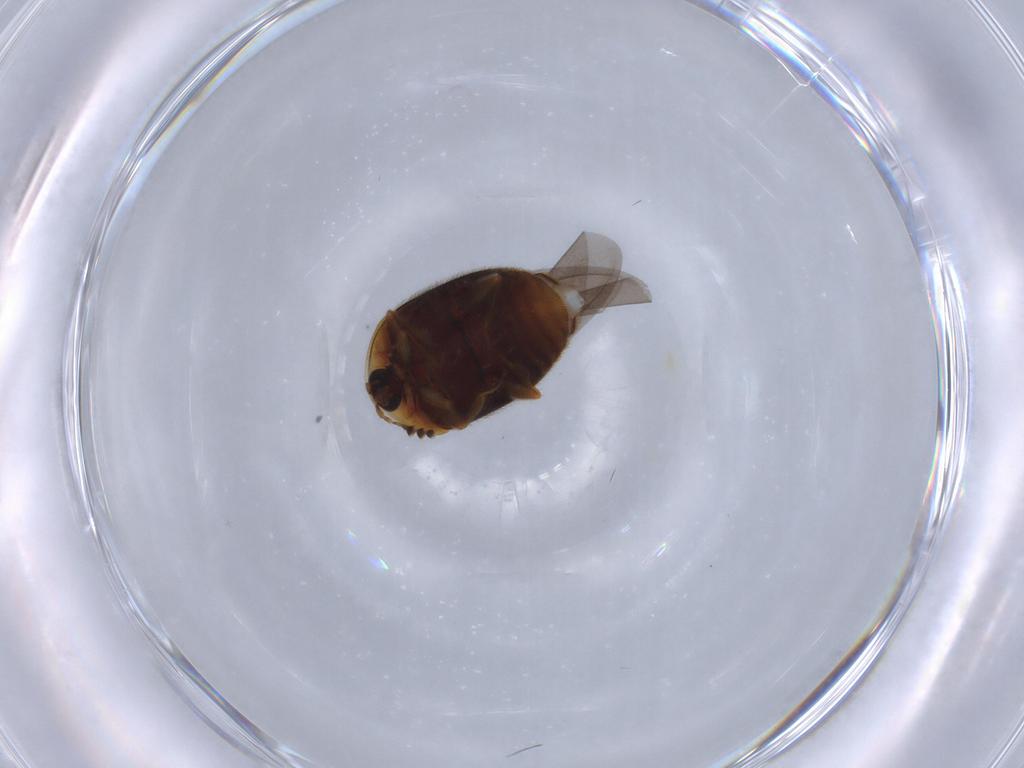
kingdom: Animalia
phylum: Arthropoda
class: Insecta
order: Coleoptera
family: Corylophidae
